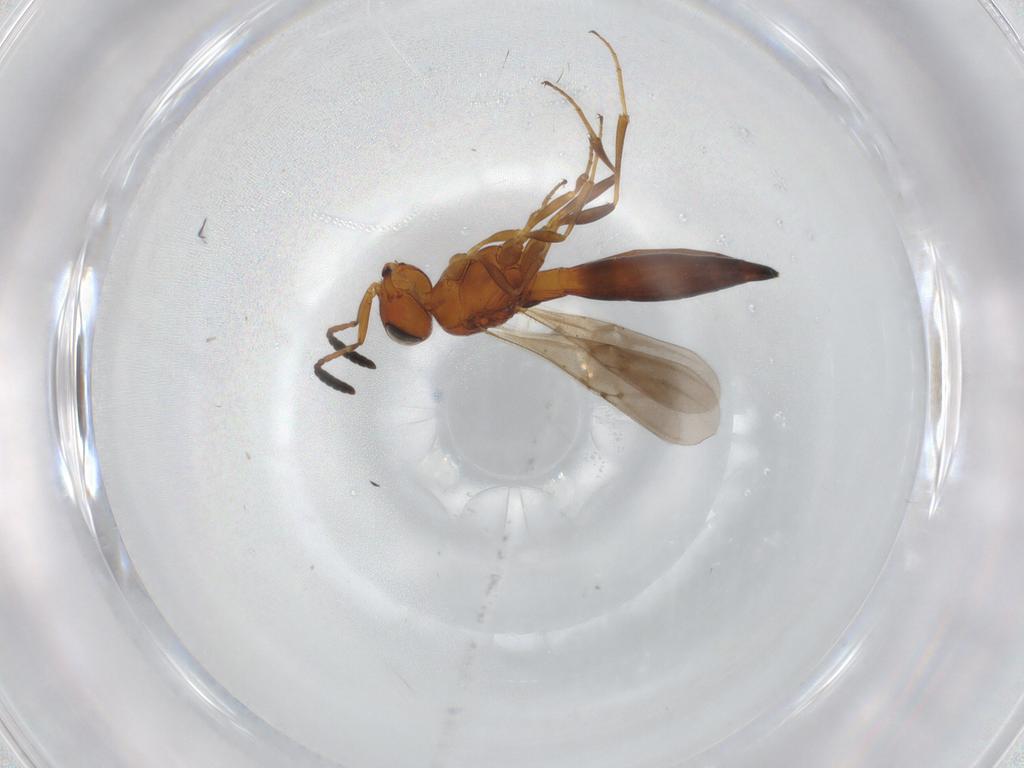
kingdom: Animalia
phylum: Arthropoda
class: Insecta
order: Hymenoptera
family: Scelionidae
